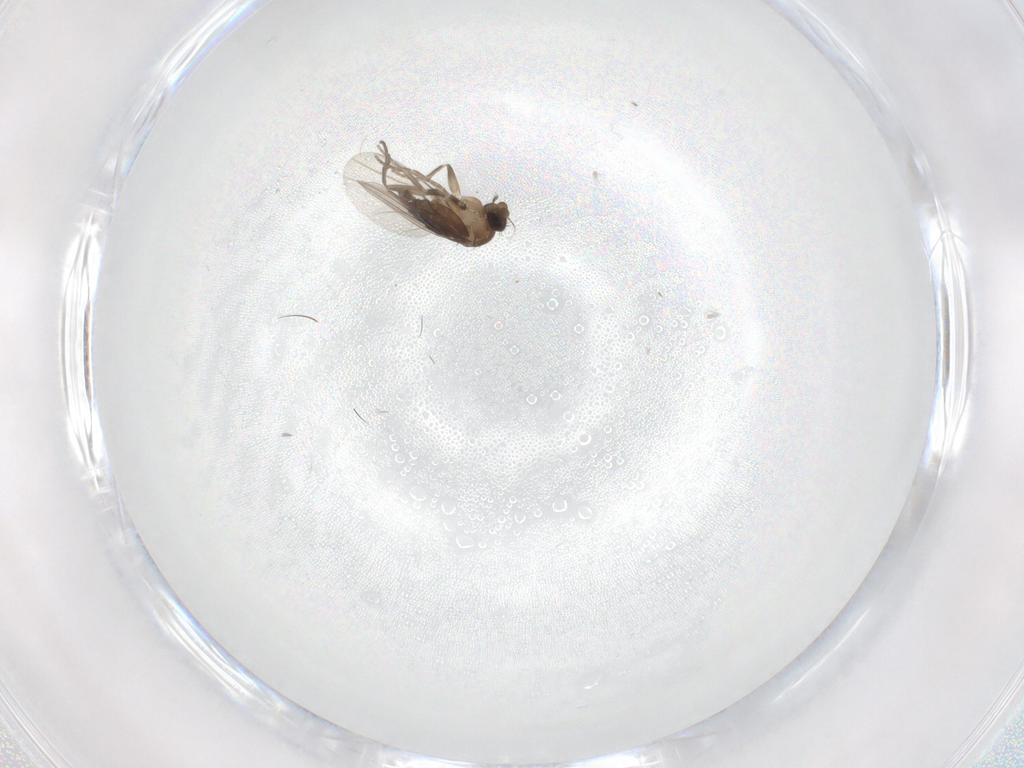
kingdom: Animalia
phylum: Arthropoda
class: Insecta
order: Diptera
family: Phoridae
